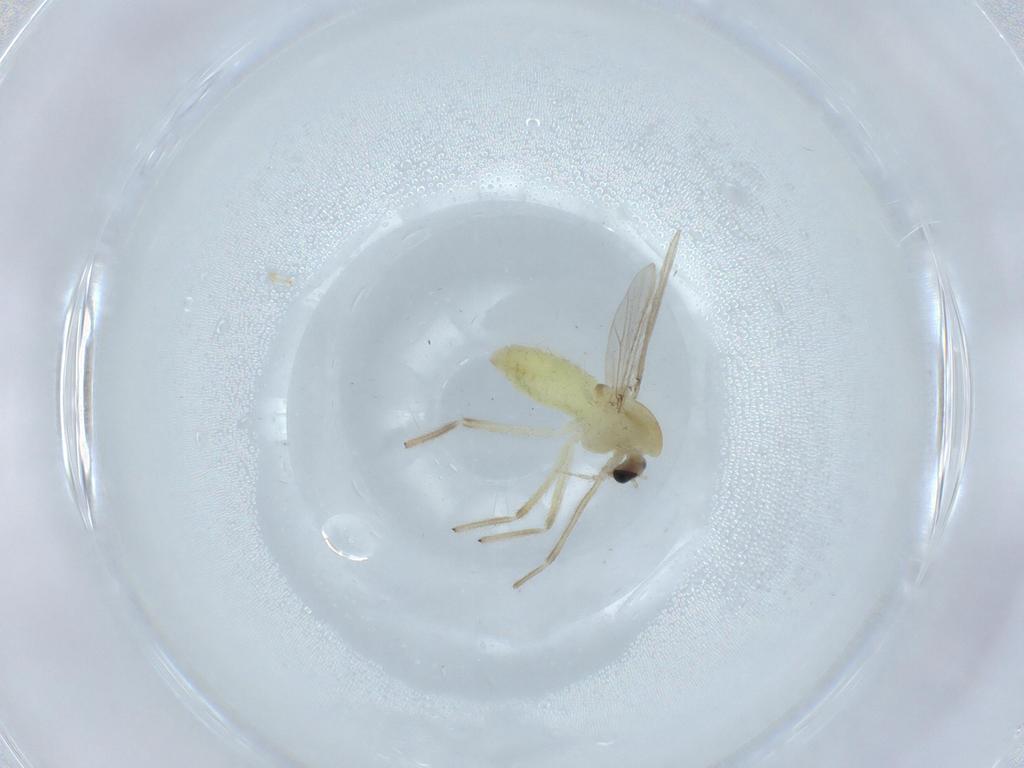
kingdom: Animalia
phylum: Arthropoda
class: Insecta
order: Diptera
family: Chironomidae
